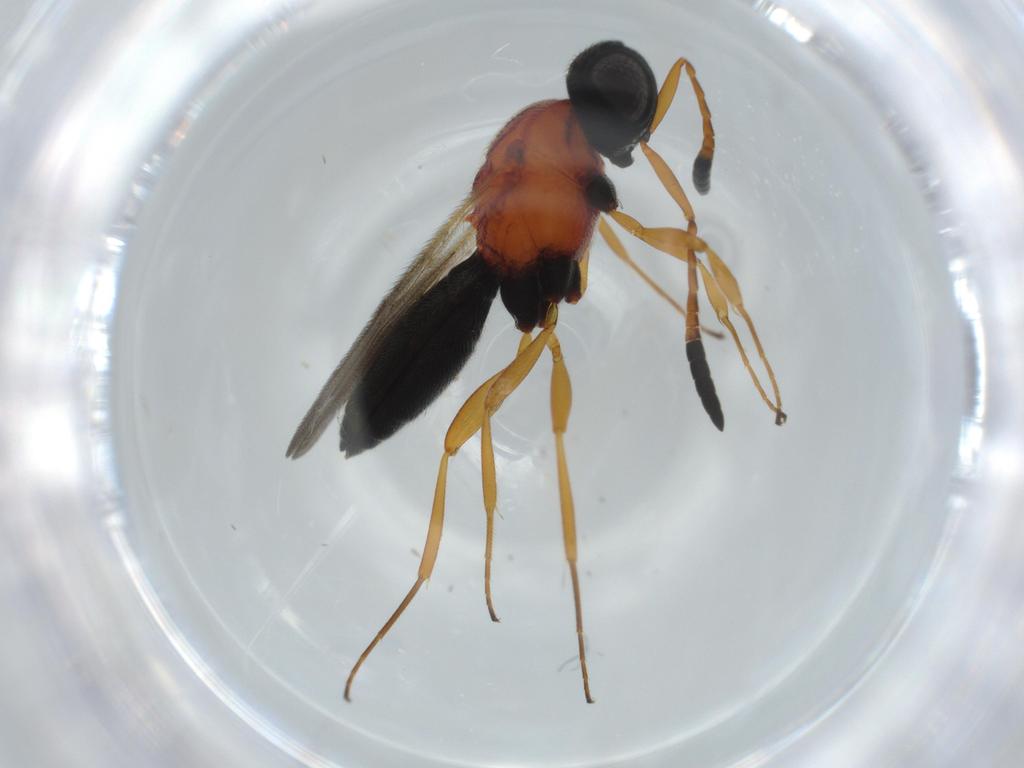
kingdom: Animalia
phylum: Arthropoda
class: Insecta
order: Hymenoptera
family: Scelionidae
